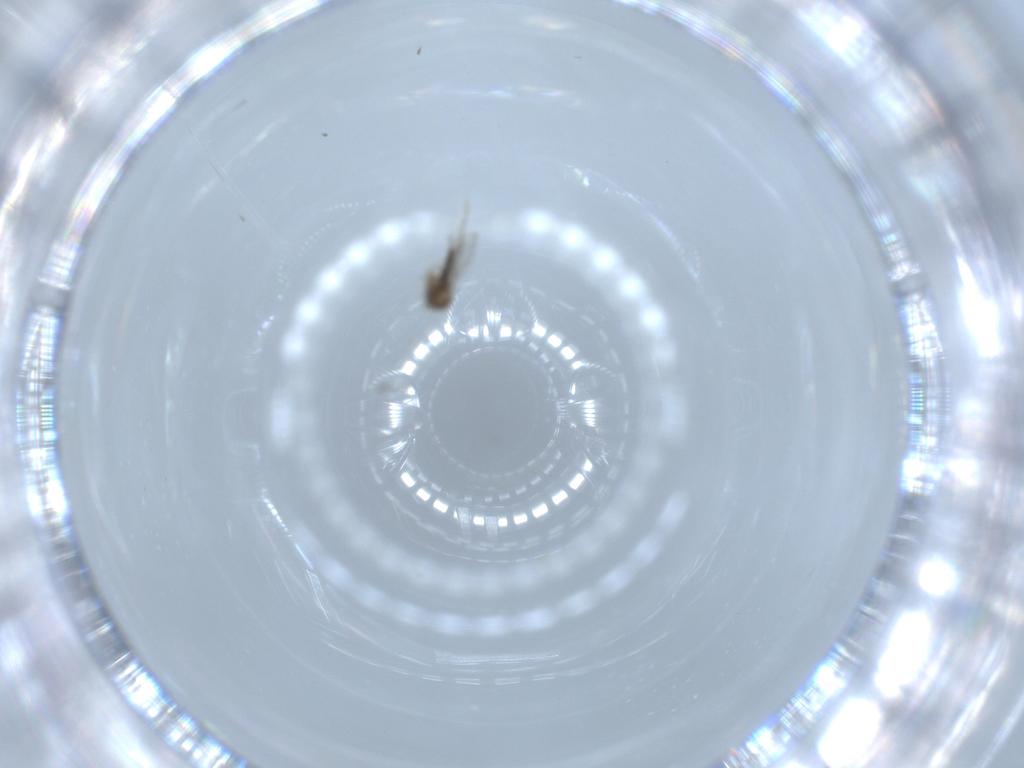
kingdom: Animalia
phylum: Arthropoda
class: Insecta
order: Diptera
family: Cecidomyiidae
